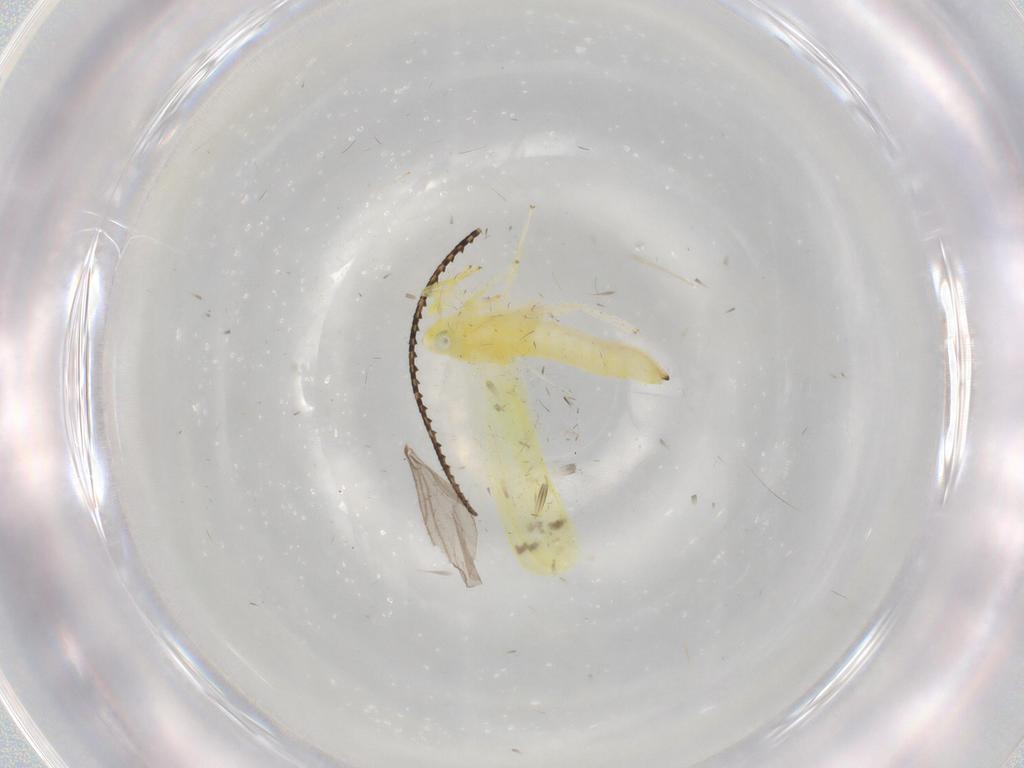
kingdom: Animalia
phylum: Arthropoda
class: Insecta
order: Hemiptera
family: Cicadellidae
